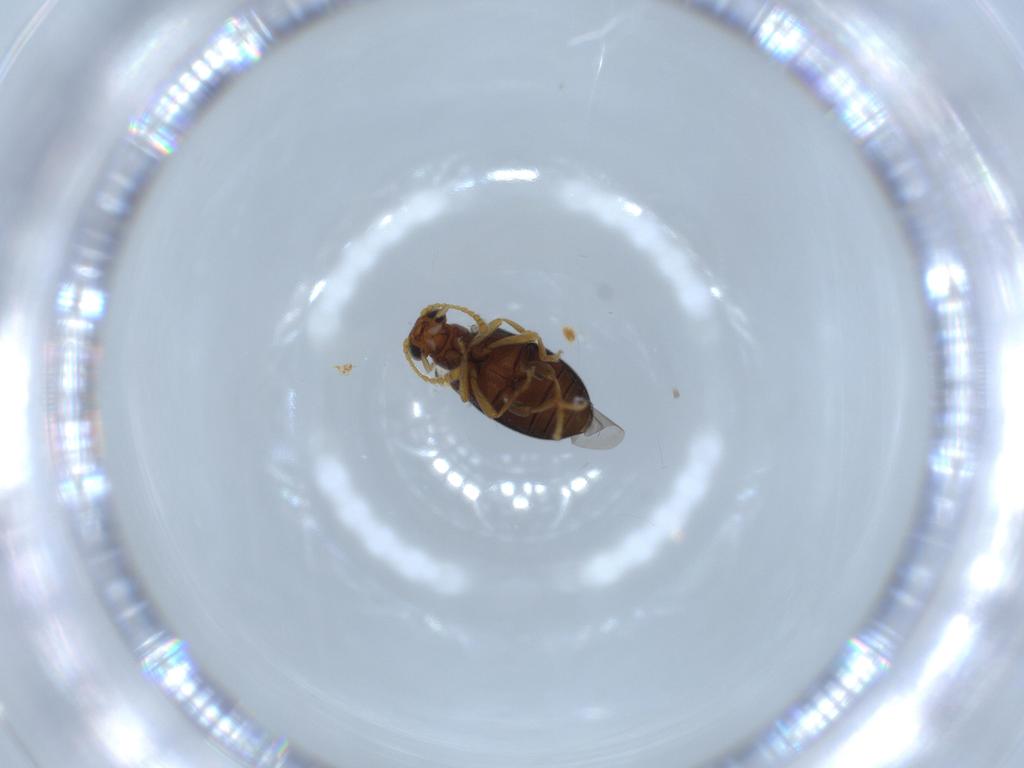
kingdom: Animalia
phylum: Arthropoda
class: Insecta
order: Coleoptera
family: Aderidae
